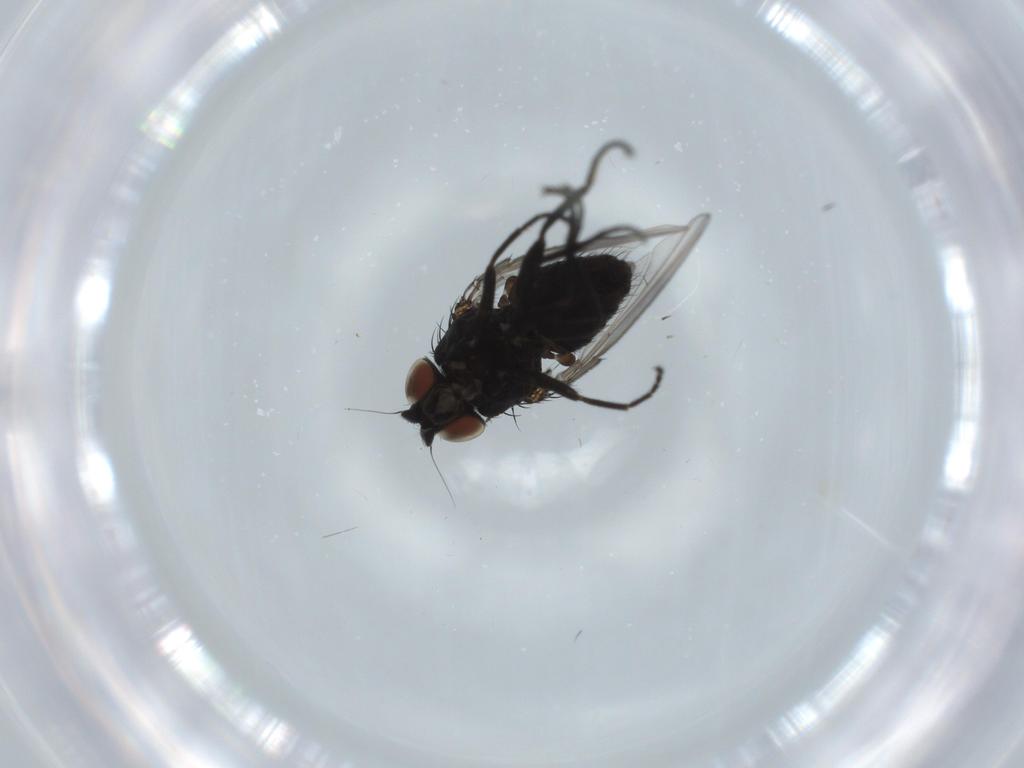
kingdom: Animalia
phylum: Arthropoda
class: Insecta
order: Diptera
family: Milichiidae
